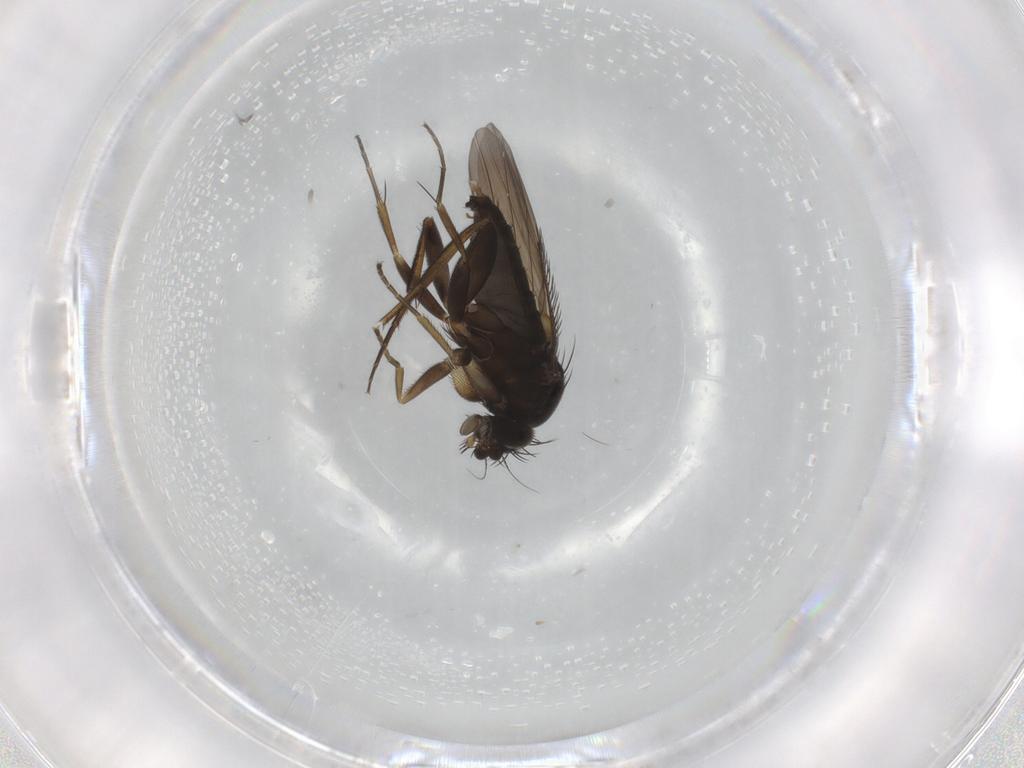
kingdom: Animalia
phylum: Arthropoda
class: Insecta
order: Diptera
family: Phoridae
